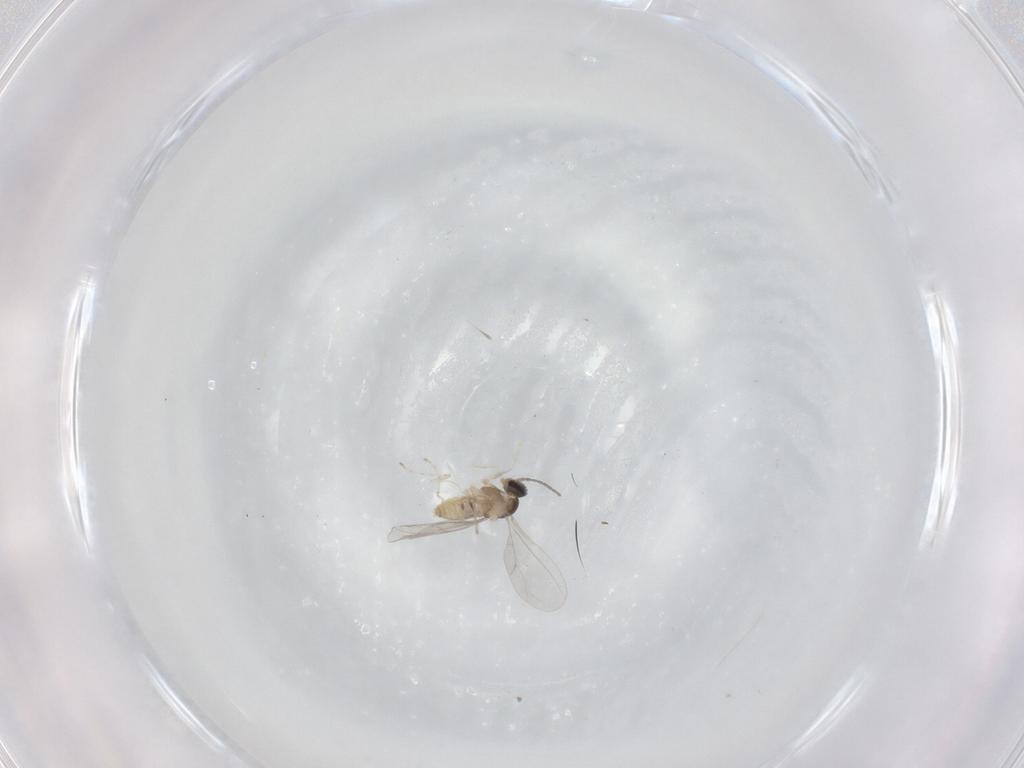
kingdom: Animalia
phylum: Arthropoda
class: Insecta
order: Diptera
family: Cecidomyiidae
